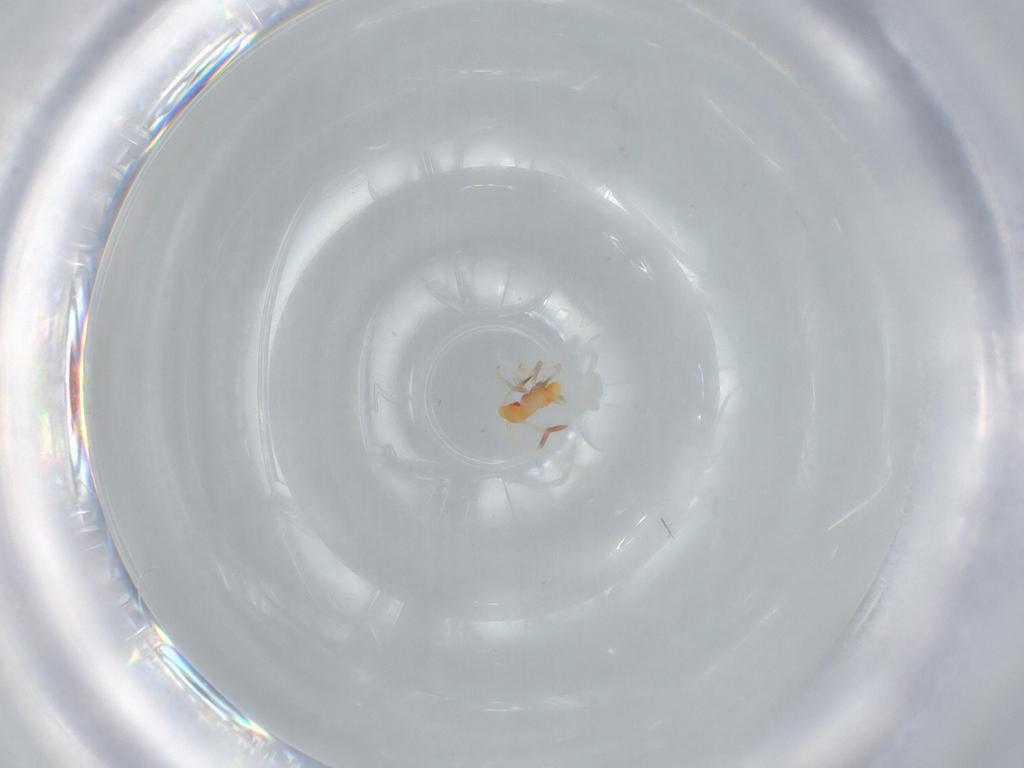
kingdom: Animalia
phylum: Arthropoda
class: Insecta
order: Hemiptera
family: Miridae
